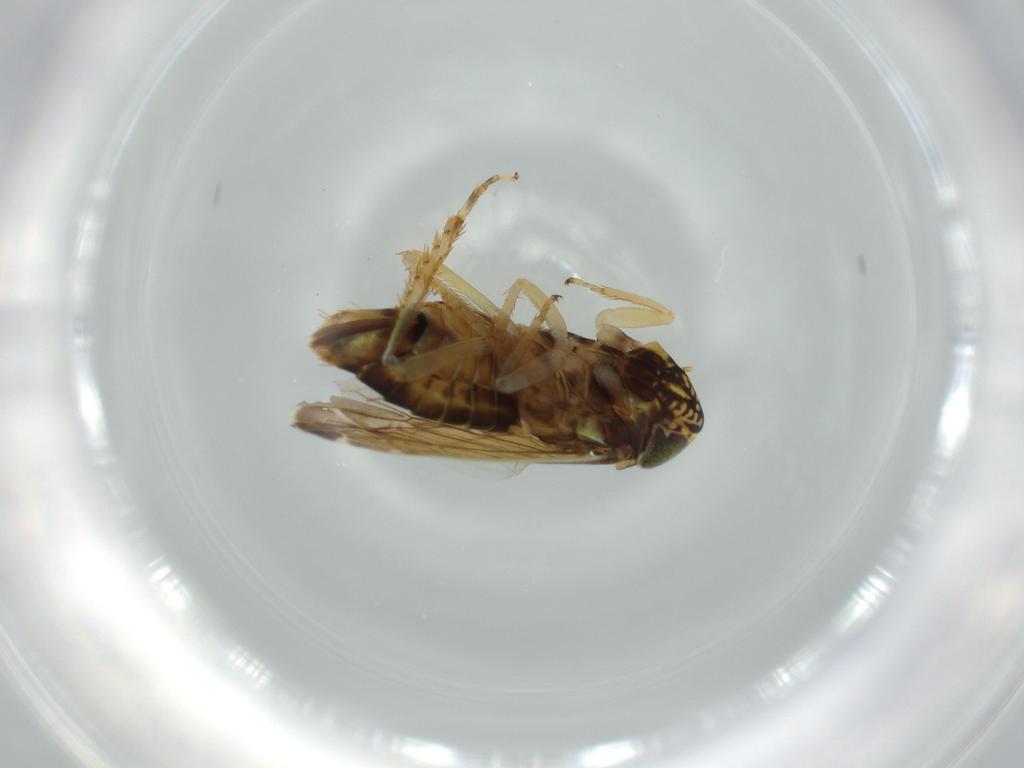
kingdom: Animalia
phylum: Arthropoda
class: Insecta
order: Hemiptera
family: Cicadellidae
